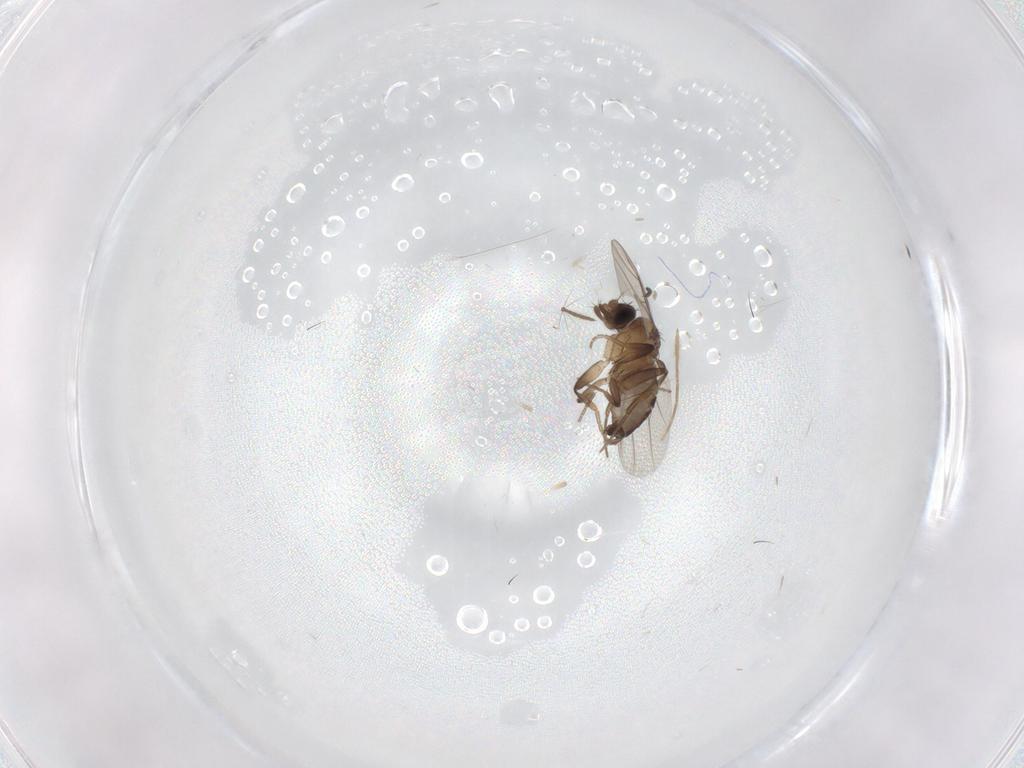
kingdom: Animalia
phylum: Arthropoda
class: Insecta
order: Diptera
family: Sciaridae
